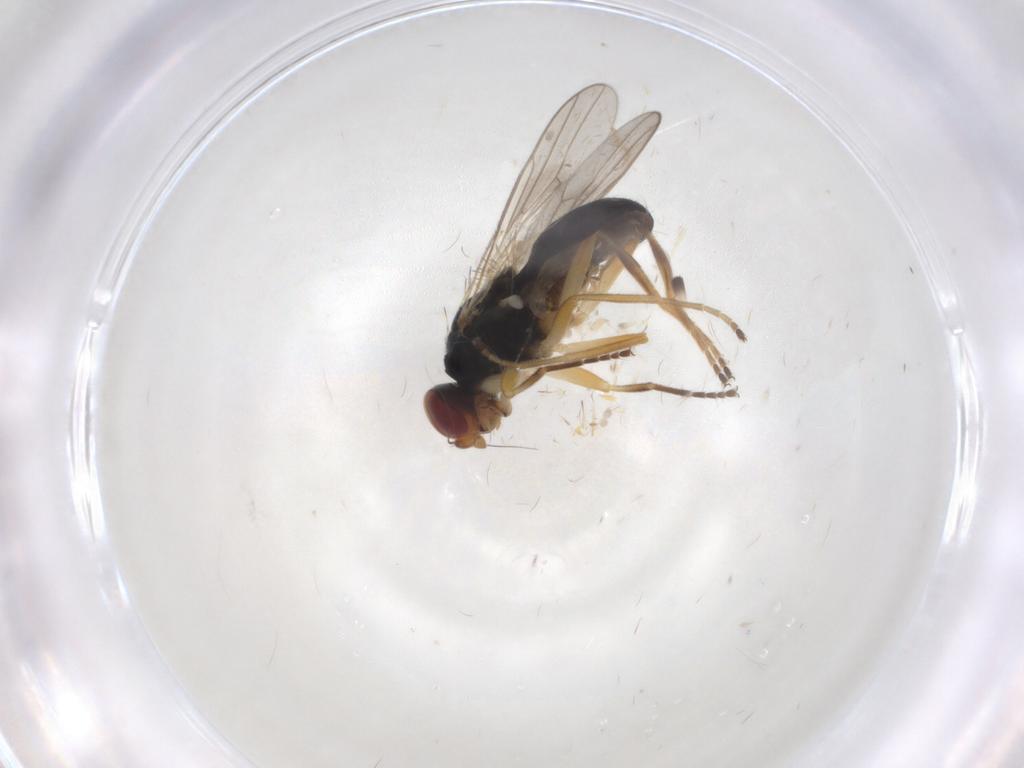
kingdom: Animalia
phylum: Arthropoda
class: Insecta
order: Diptera
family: Chloropidae
